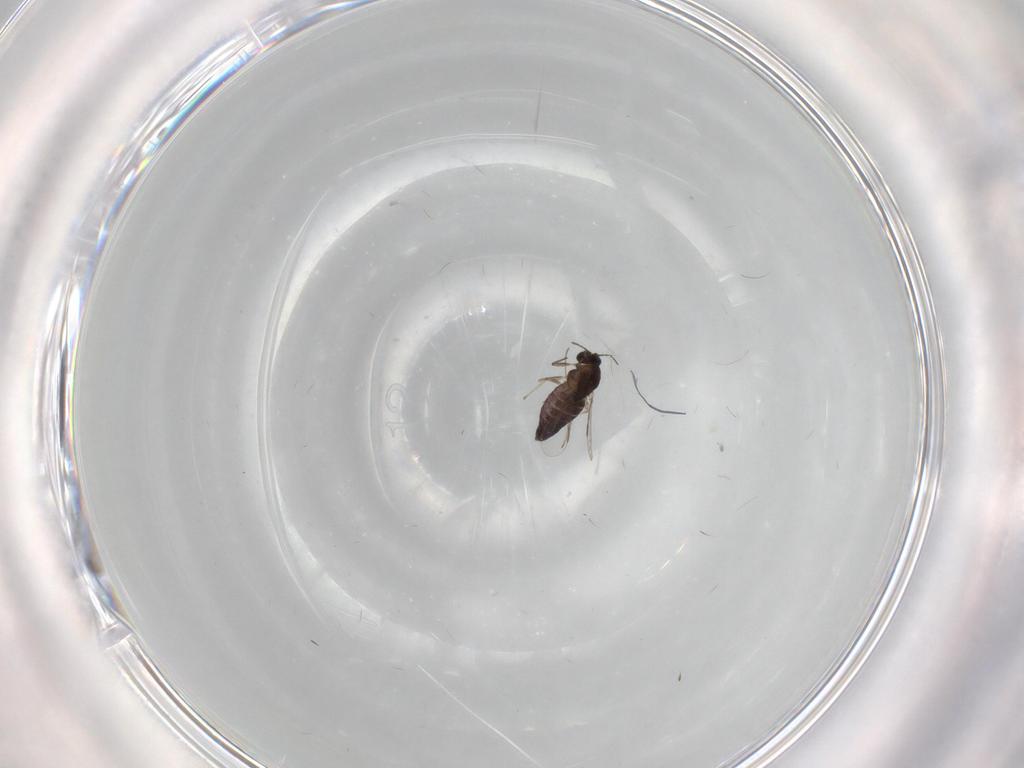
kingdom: Animalia
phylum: Arthropoda
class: Insecta
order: Diptera
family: Chironomidae
